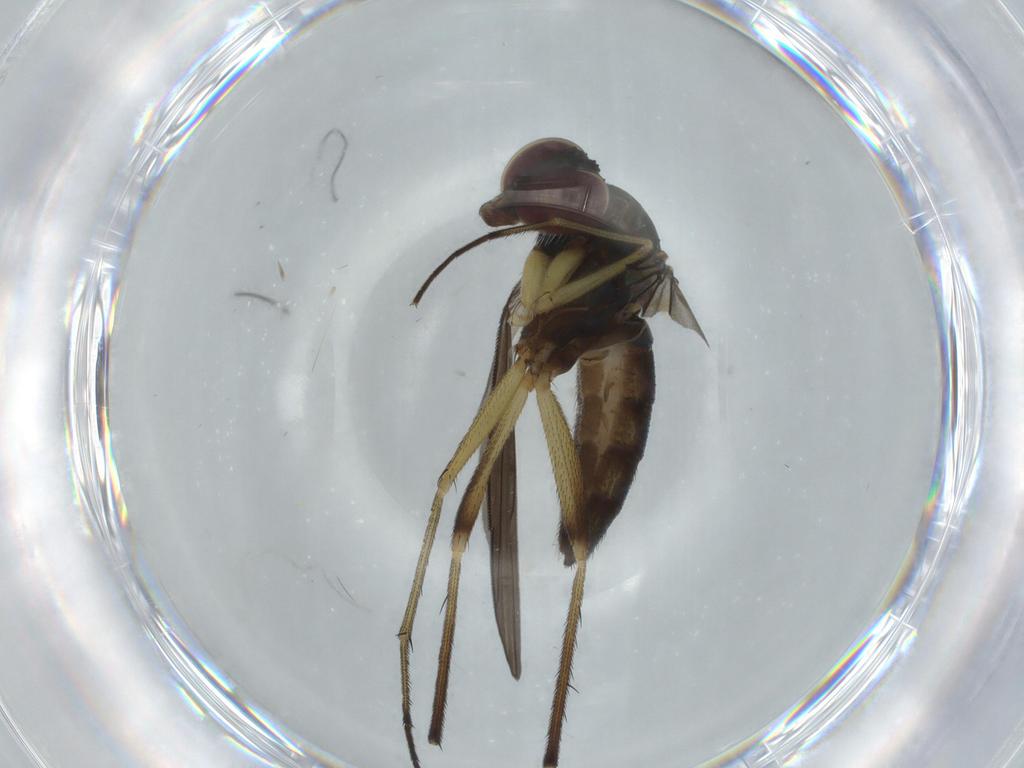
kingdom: Animalia
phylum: Arthropoda
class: Insecta
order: Diptera
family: Dolichopodidae
